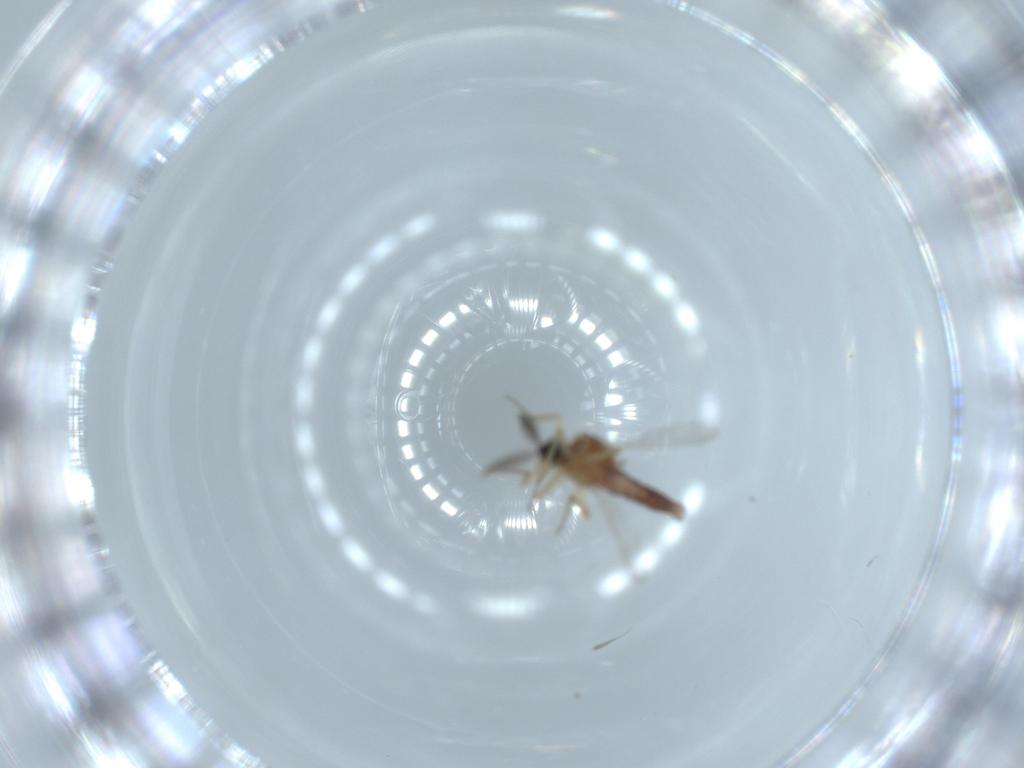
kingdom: Animalia
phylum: Arthropoda
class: Insecta
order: Diptera
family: Ceratopogonidae
